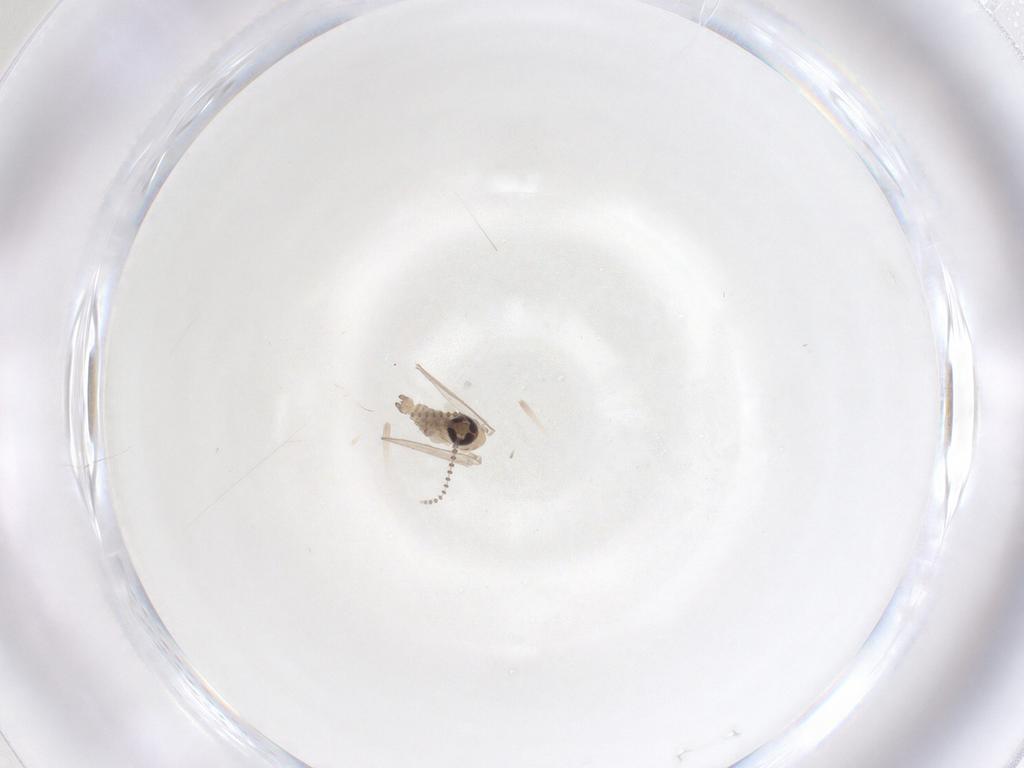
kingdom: Animalia
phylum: Arthropoda
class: Insecta
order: Diptera
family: Psychodidae
